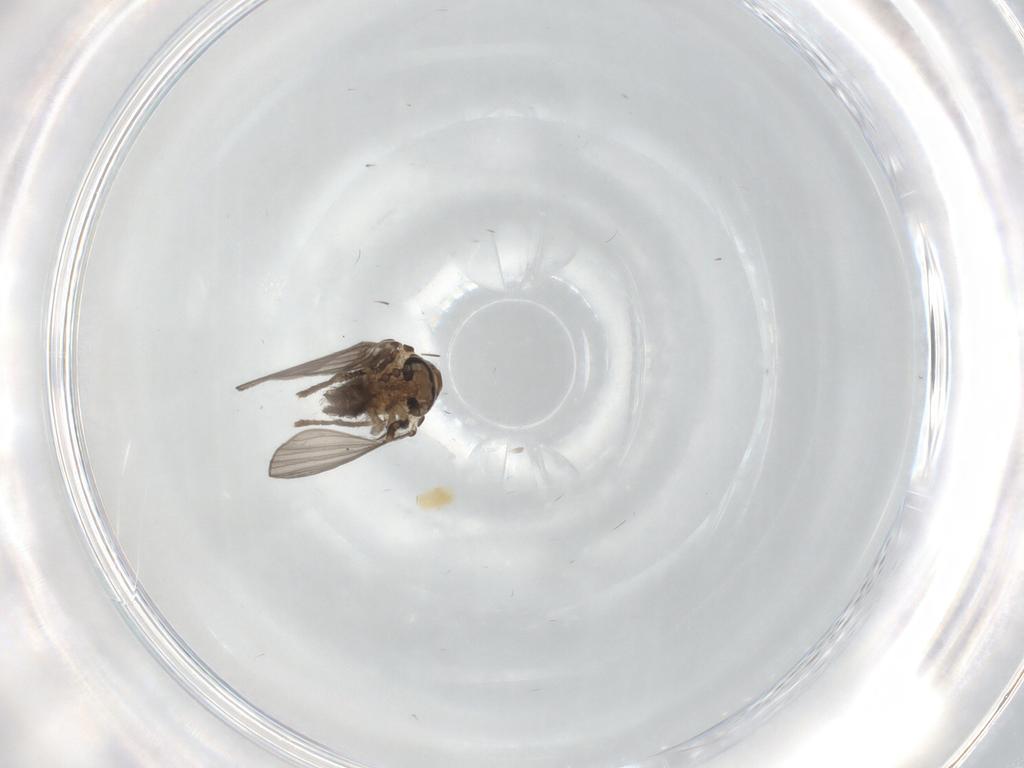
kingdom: Animalia
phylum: Arthropoda
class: Insecta
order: Diptera
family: Psychodidae
